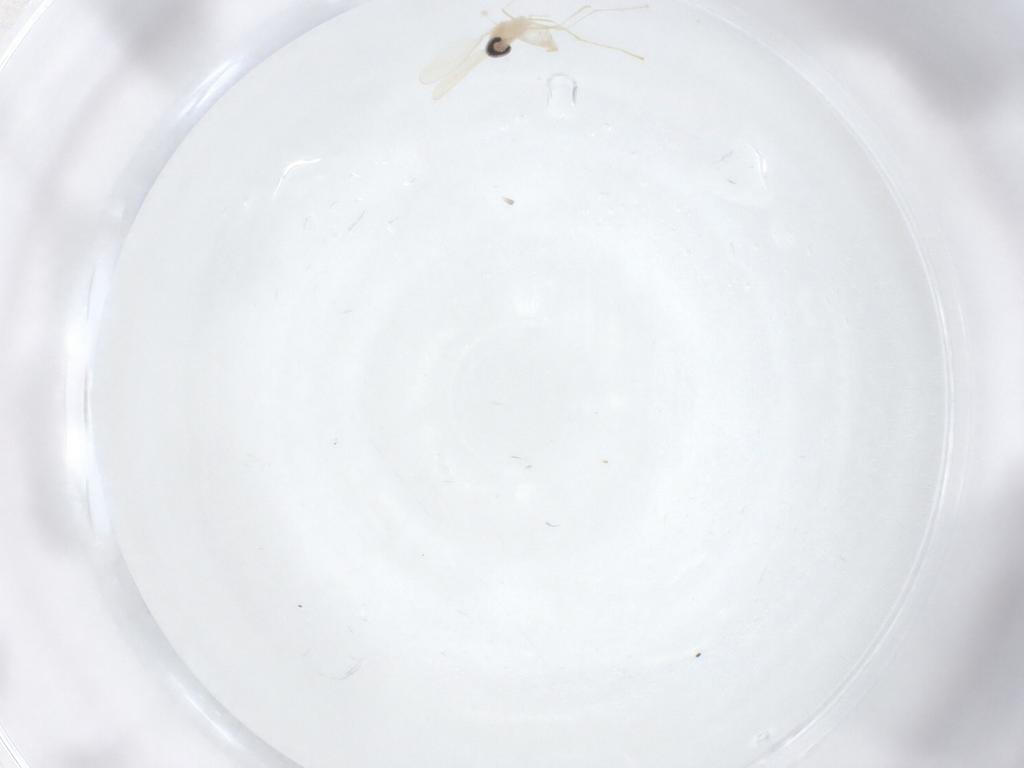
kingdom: Animalia
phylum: Arthropoda
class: Insecta
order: Diptera
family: Cecidomyiidae
